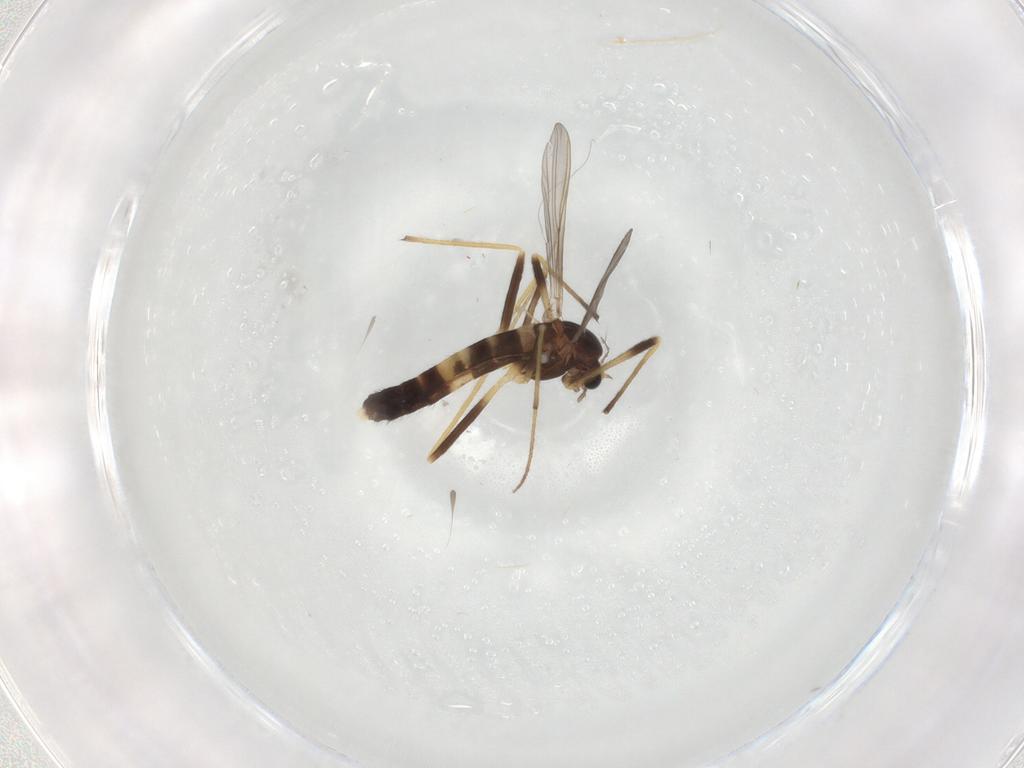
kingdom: Animalia
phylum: Arthropoda
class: Insecta
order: Diptera
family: Chironomidae
